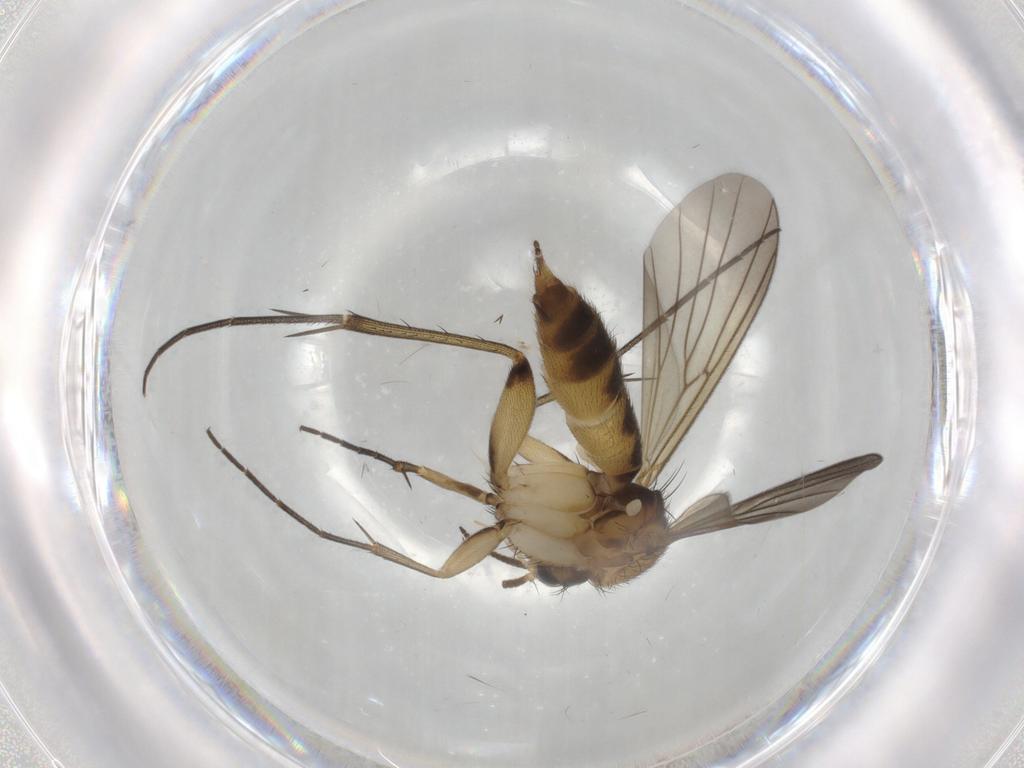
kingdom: Animalia
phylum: Arthropoda
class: Insecta
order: Diptera
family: Mycetophilidae
